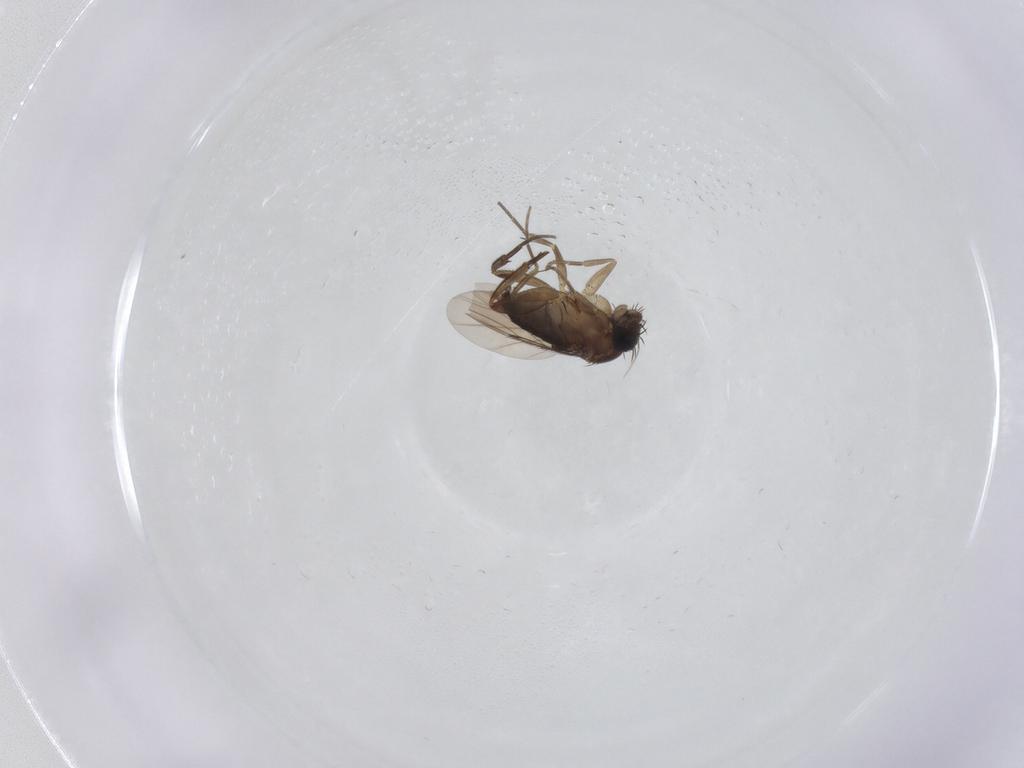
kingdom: Animalia
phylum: Arthropoda
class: Insecta
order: Diptera
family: Phoridae
